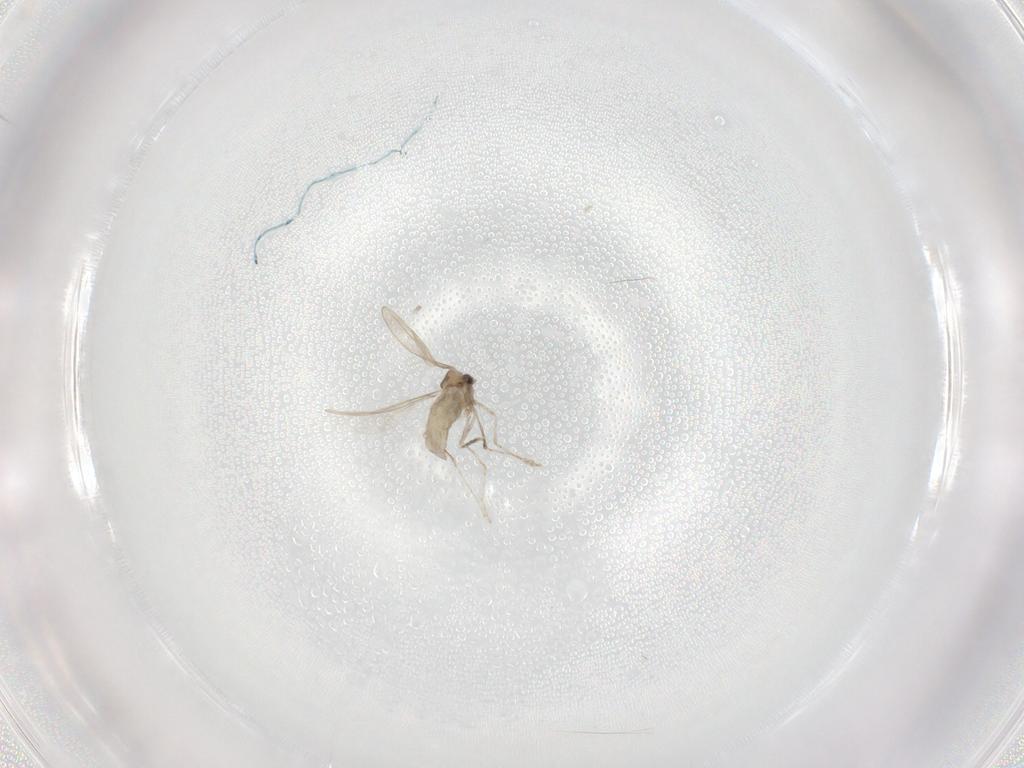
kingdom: Animalia
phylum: Arthropoda
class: Insecta
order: Diptera
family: Cecidomyiidae
